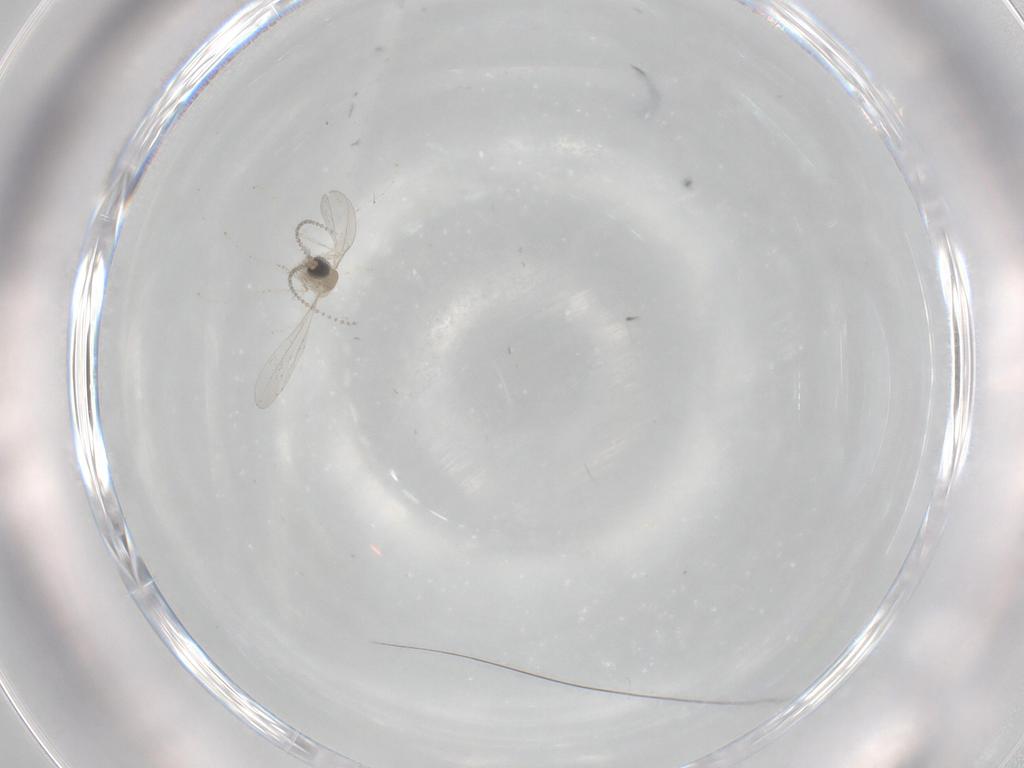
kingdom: Animalia
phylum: Arthropoda
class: Insecta
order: Diptera
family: Cecidomyiidae
